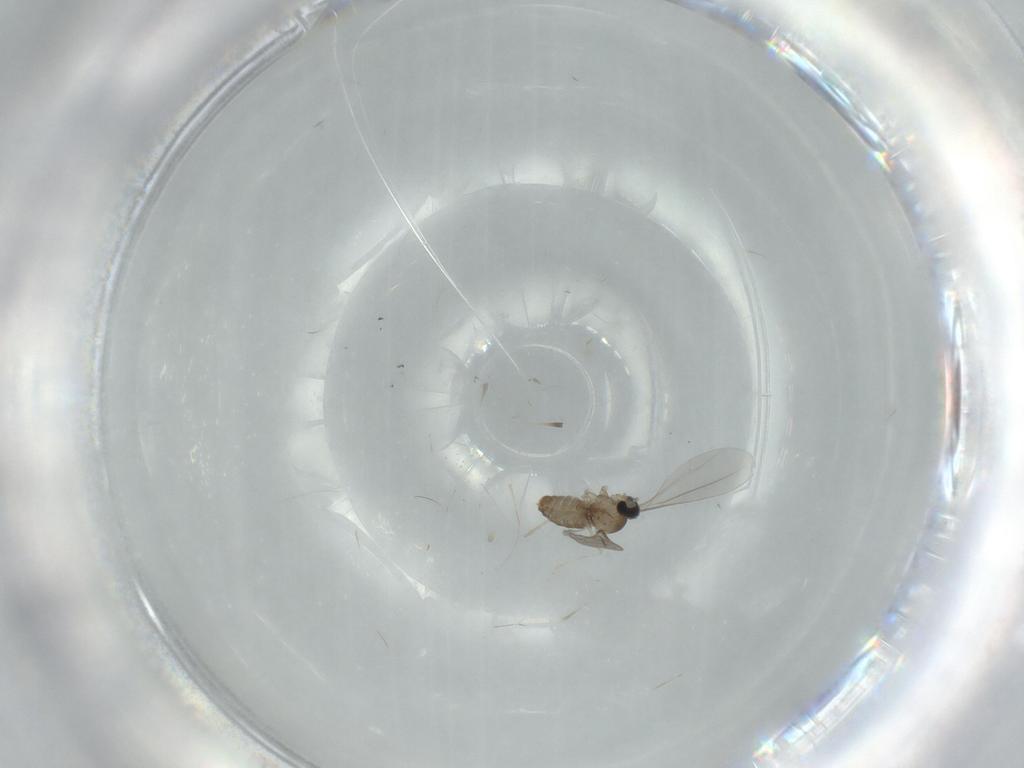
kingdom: Animalia
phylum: Arthropoda
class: Insecta
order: Diptera
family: Cecidomyiidae
